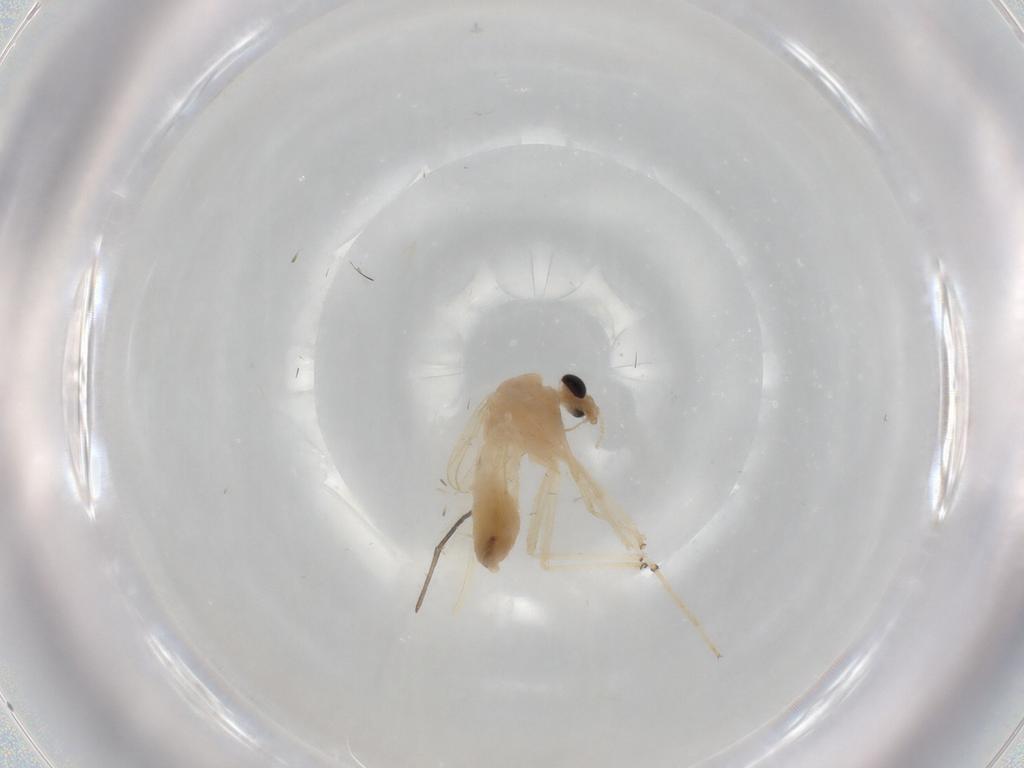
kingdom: Animalia
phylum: Arthropoda
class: Insecta
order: Diptera
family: Chironomidae
